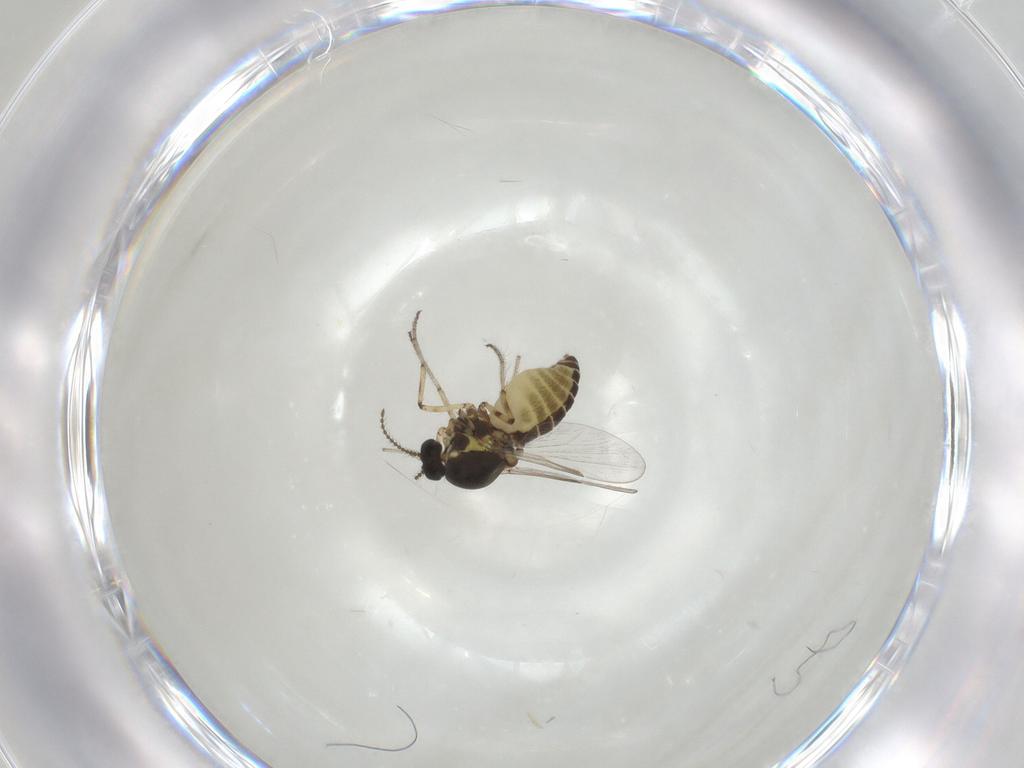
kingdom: Animalia
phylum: Arthropoda
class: Insecta
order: Diptera
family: Ceratopogonidae
